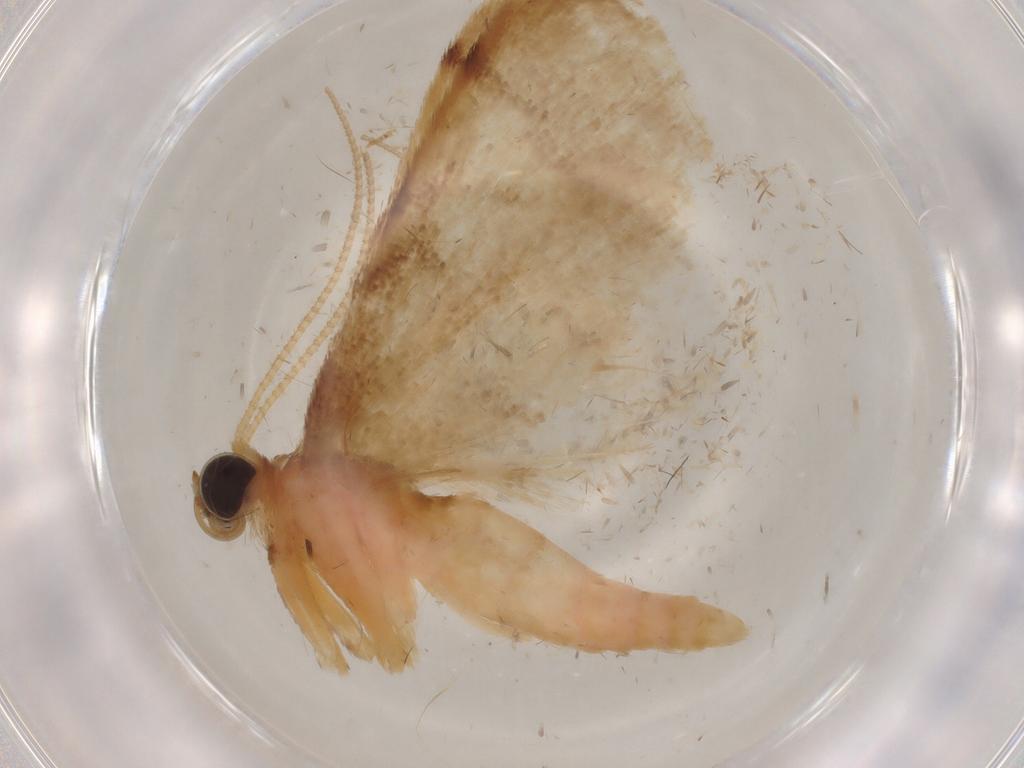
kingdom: Animalia
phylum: Arthropoda
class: Insecta
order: Lepidoptera
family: Geometridae
